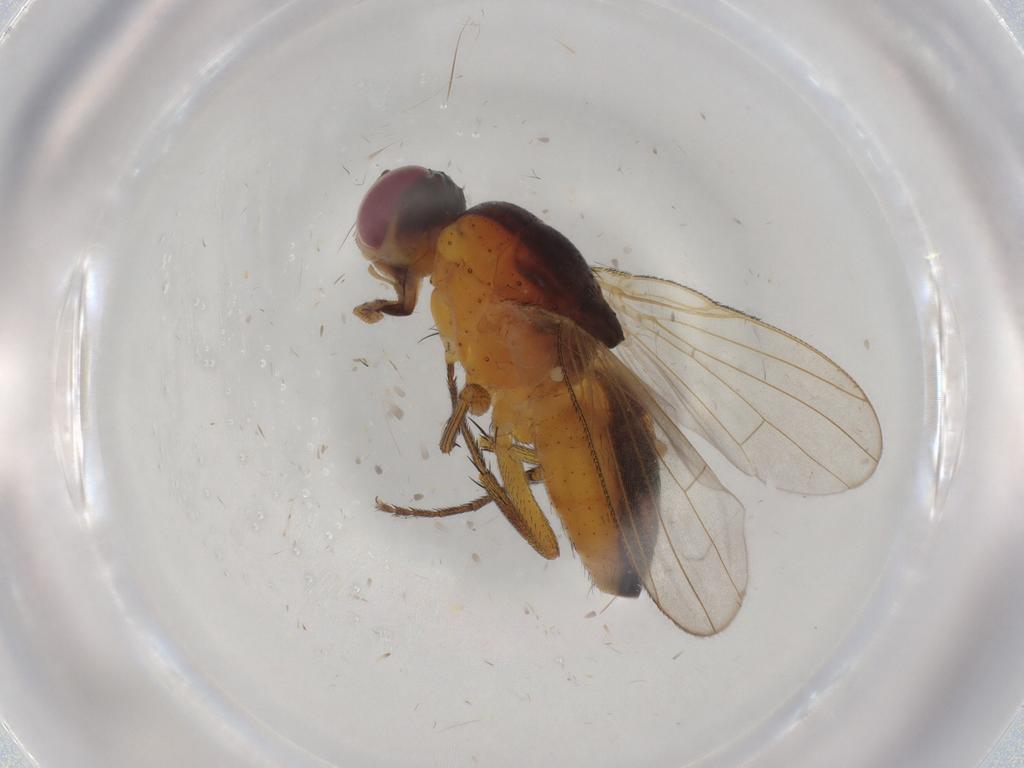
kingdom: Animalia
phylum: Arthropoda
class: Insecta
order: Diptera
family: Muscidae
